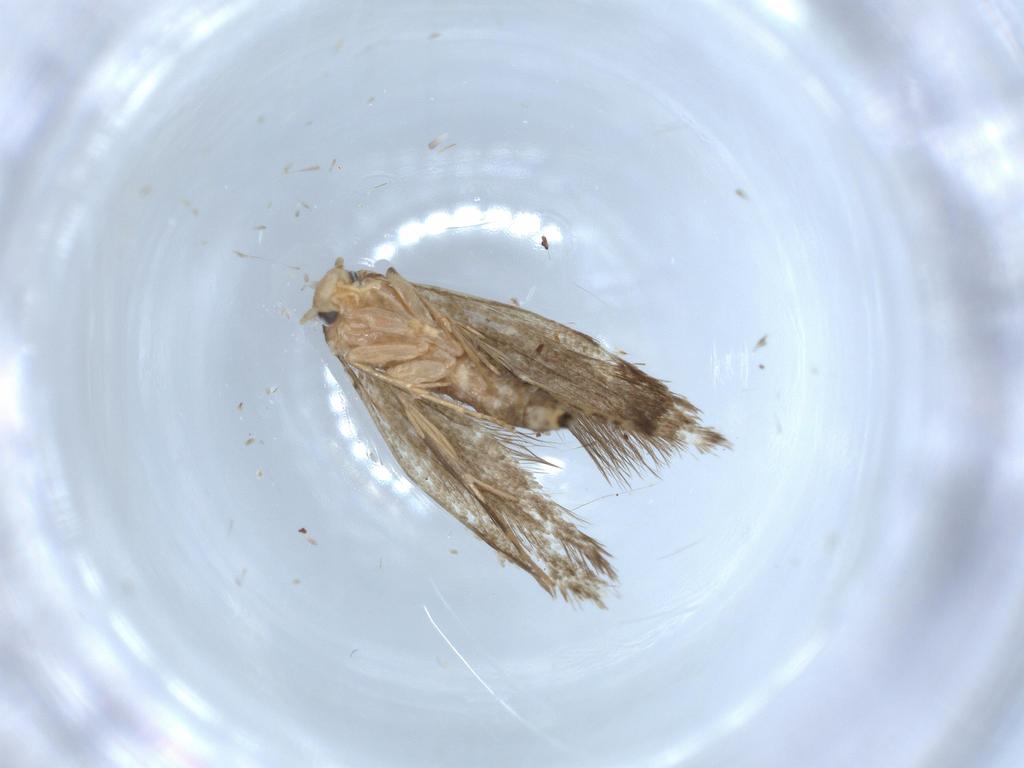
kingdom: Animalia
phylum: Arthropoda
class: Insecta
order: Lepidoptera
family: Tineidae
